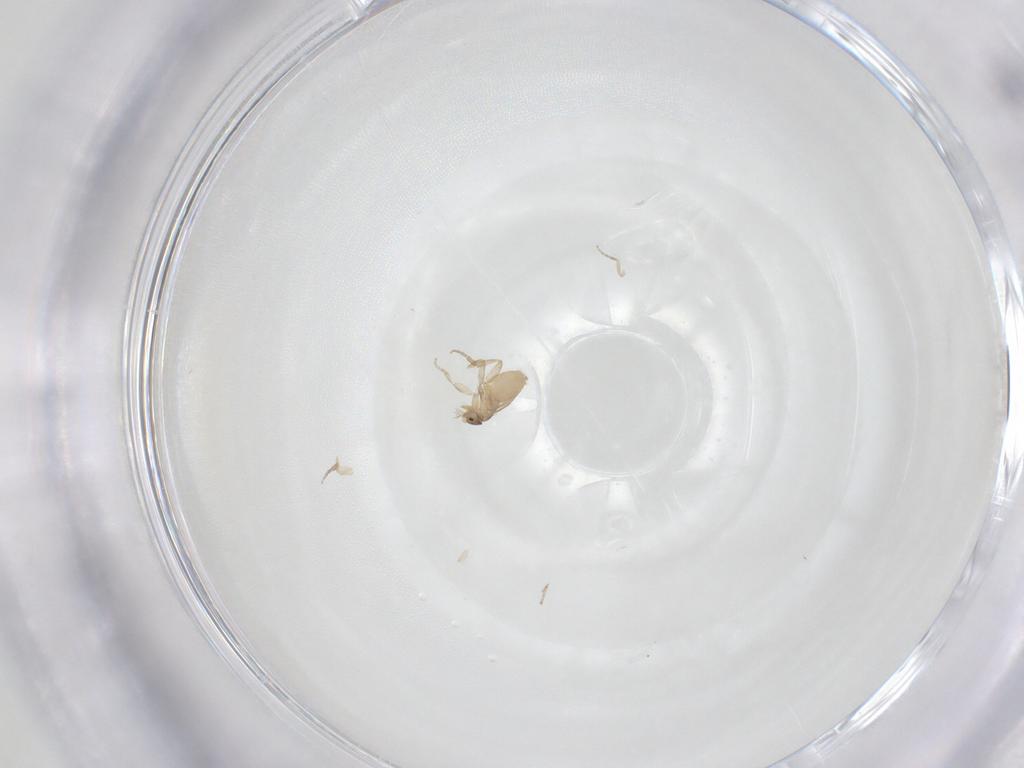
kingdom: Animalia
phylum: Arthropoda
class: Insecta
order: Diptera
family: Phoridae
